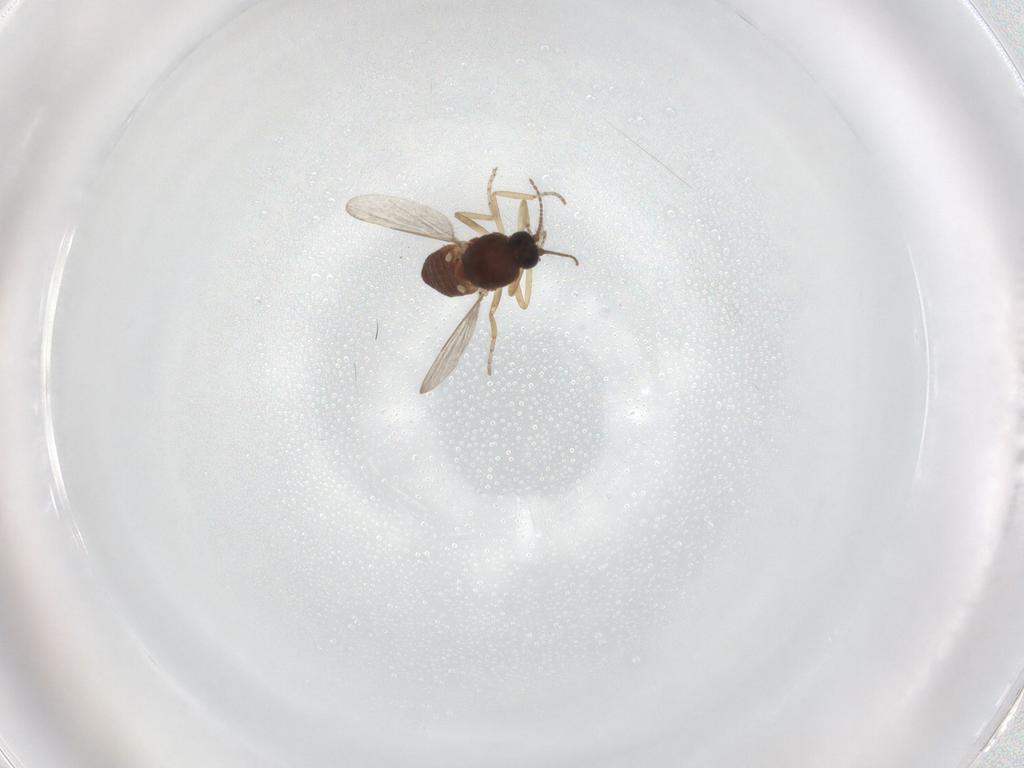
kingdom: Animalia
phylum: Arthropoda
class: Insecta
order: Diptera
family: Ceratopogonidae
